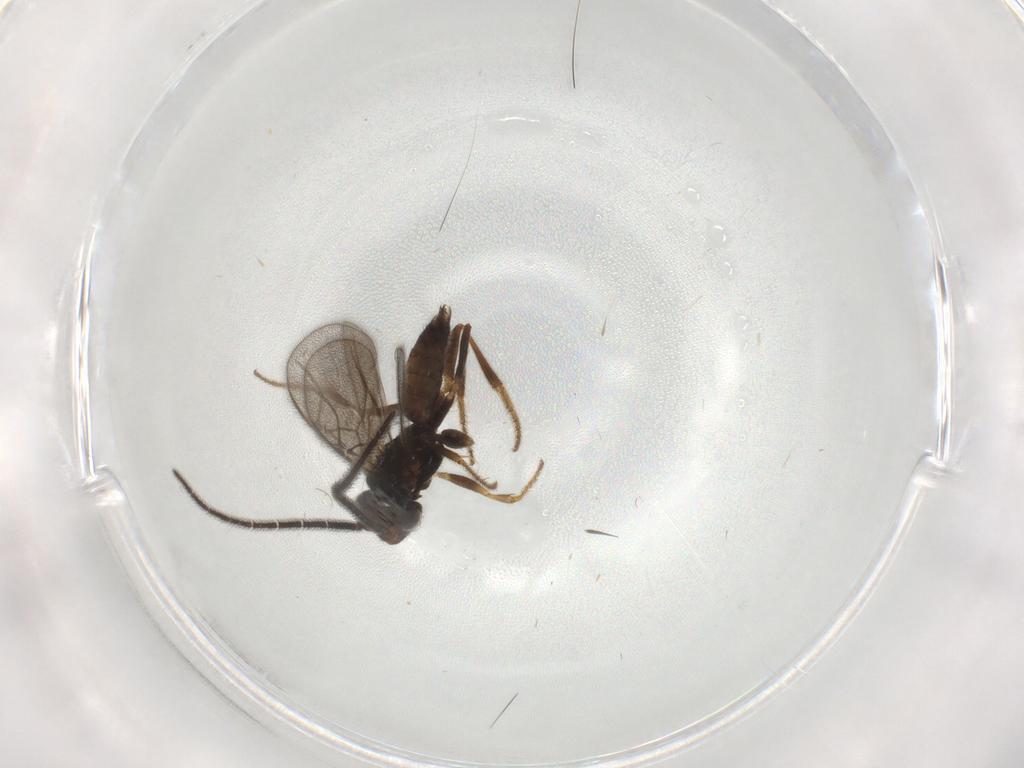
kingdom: Animalia
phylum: Arthropoda
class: Insecta
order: Hymenoptera
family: Dryinidae
